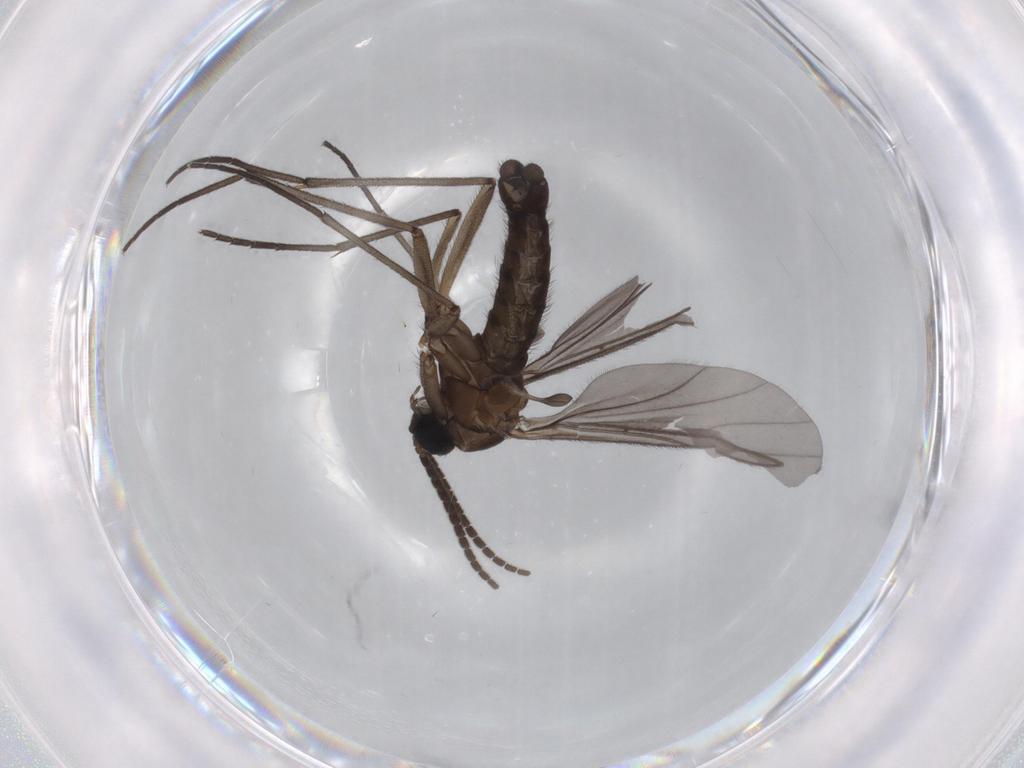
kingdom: Animalia
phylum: Arthropoda
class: Insecta
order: Diptera
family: Sciaridae
